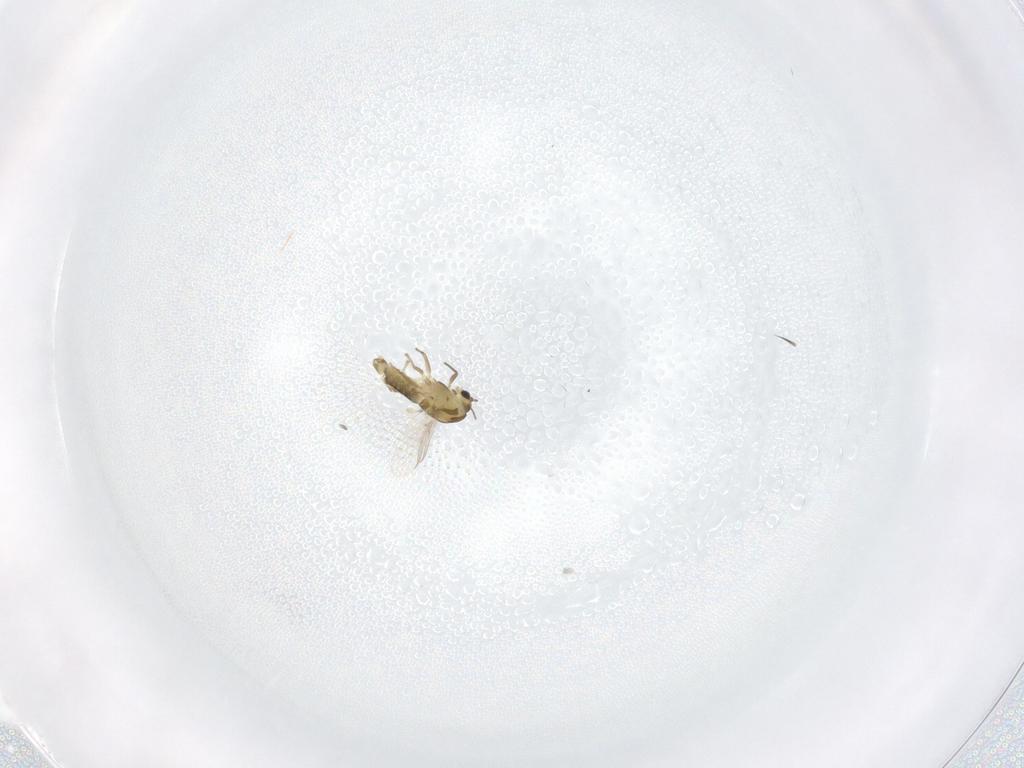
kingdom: Animalia
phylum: Arthropoda
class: Insecta
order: Diptera
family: Chironomidae
